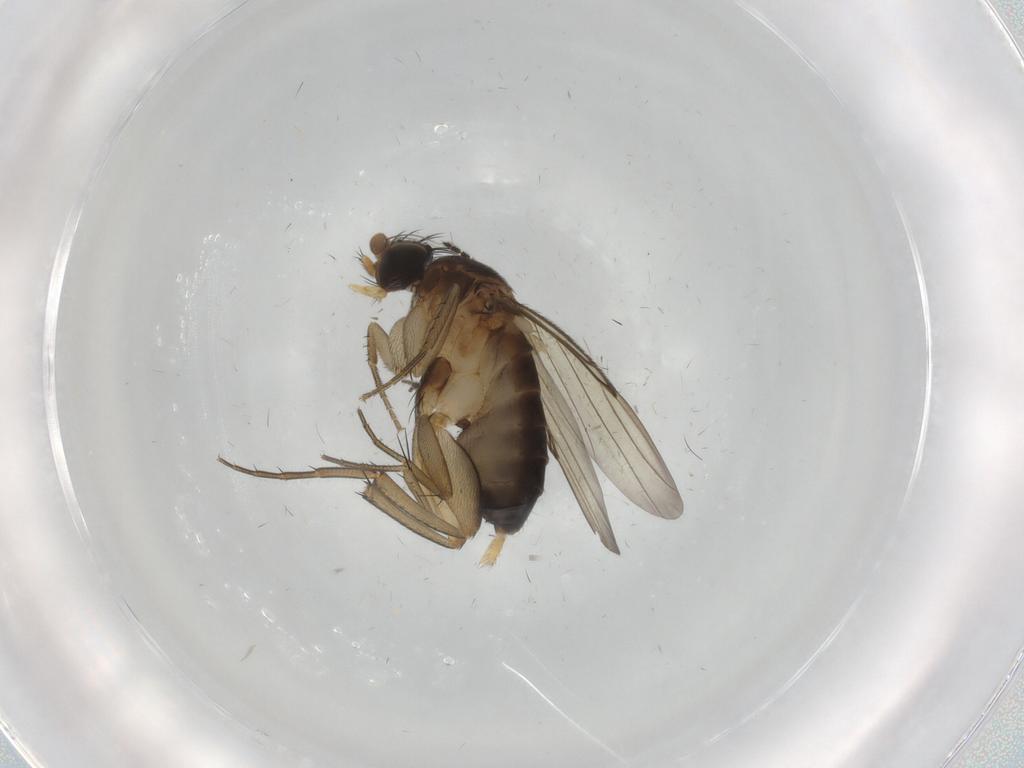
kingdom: Animalia
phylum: Arthropoda
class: Insecta
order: Diptera
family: Phoridae
